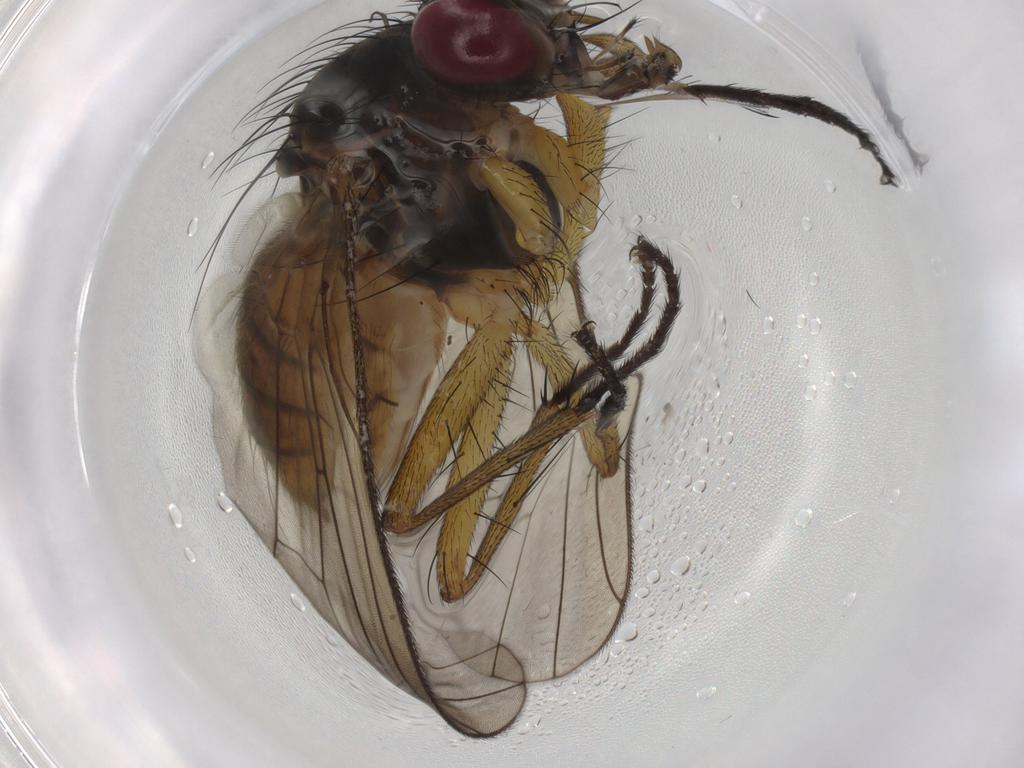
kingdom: Animalia
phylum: Arthropoda
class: Insecta
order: Diptera
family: Muscidae
